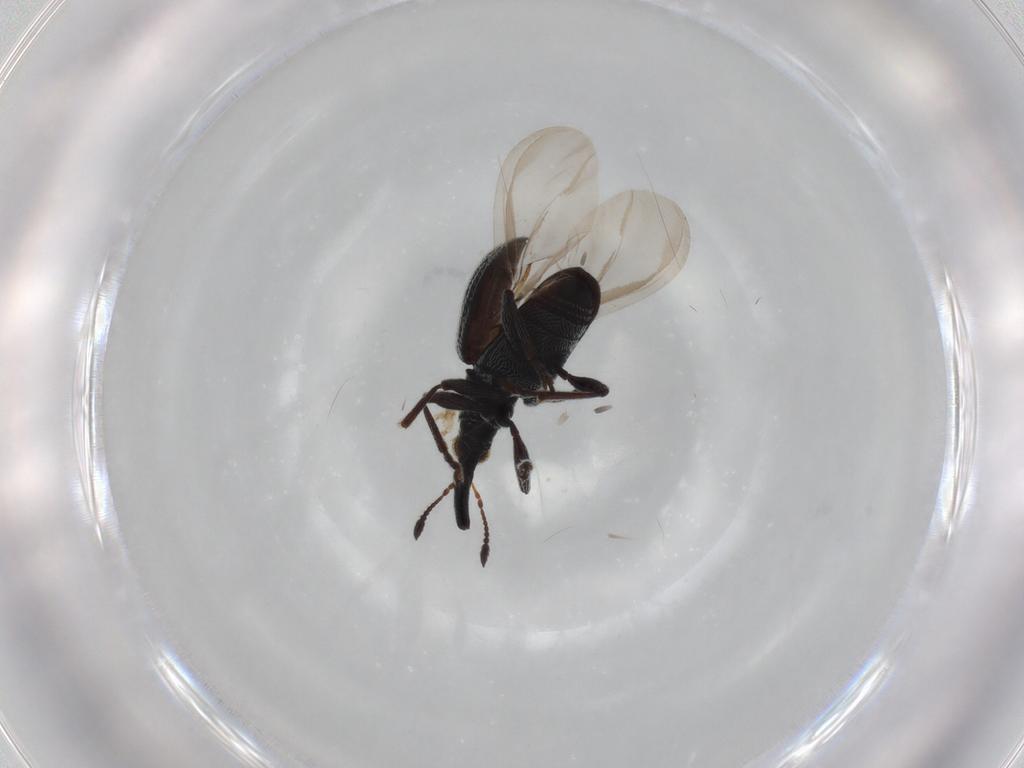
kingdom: Animalia
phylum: Arthropoda
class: Insecta
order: Coleoptera
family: Brentidae
